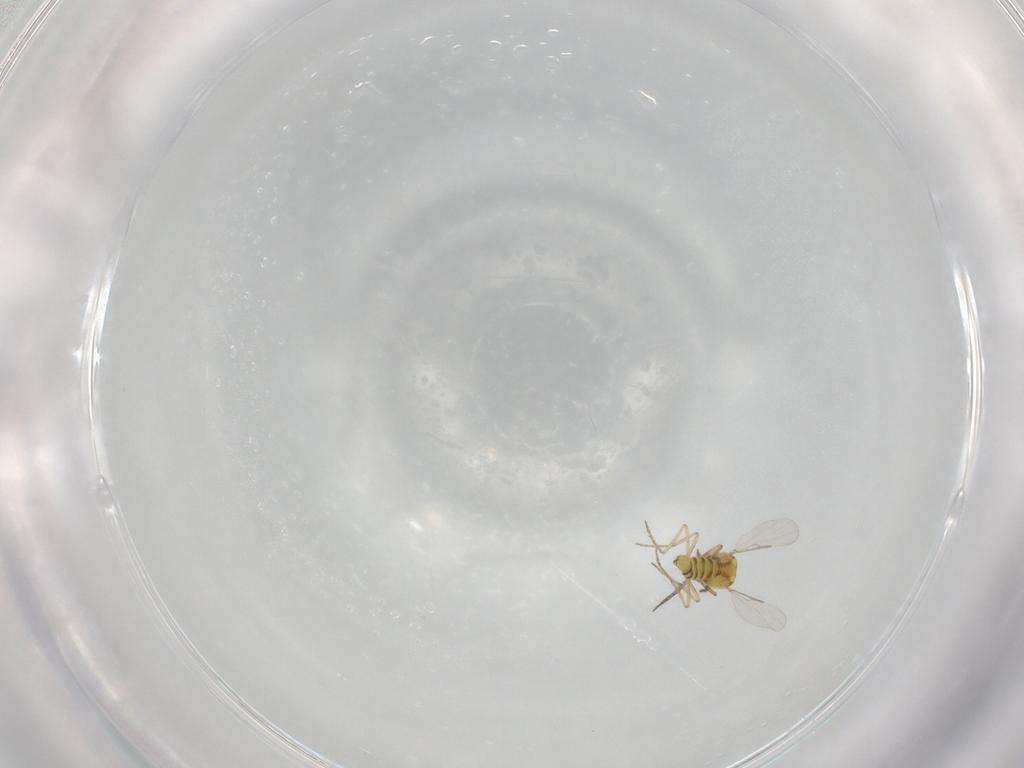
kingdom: Animalia
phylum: Arthropoda
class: Insecta
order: Diptera
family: Ceratopogonidae
